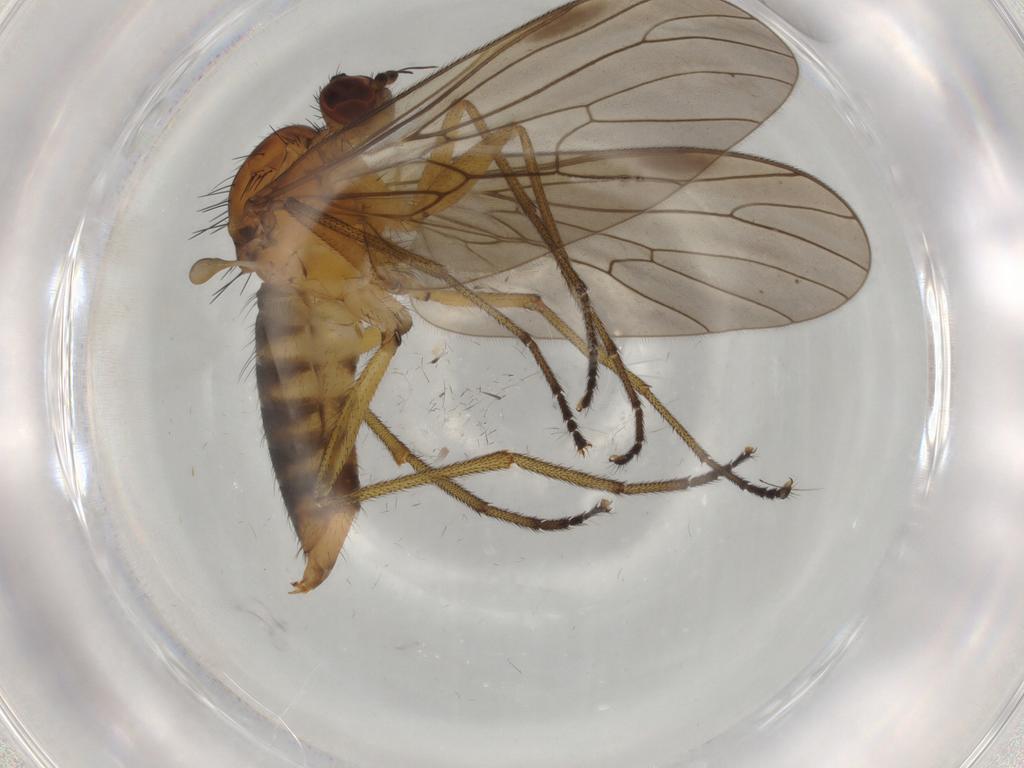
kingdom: Animalia
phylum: Arthropoda
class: Insecta
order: Diptera
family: Brachystomatidae
